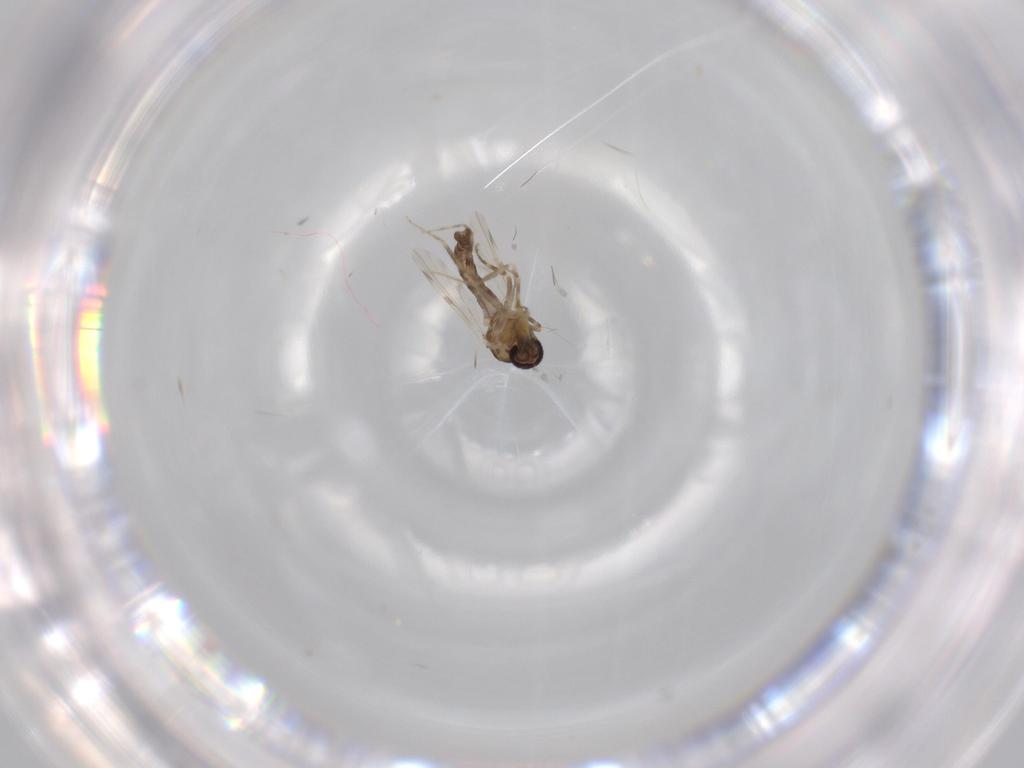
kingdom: Animalia
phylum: Arthropoda
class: Insecta
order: Diptera
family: Ceratopogonidae
